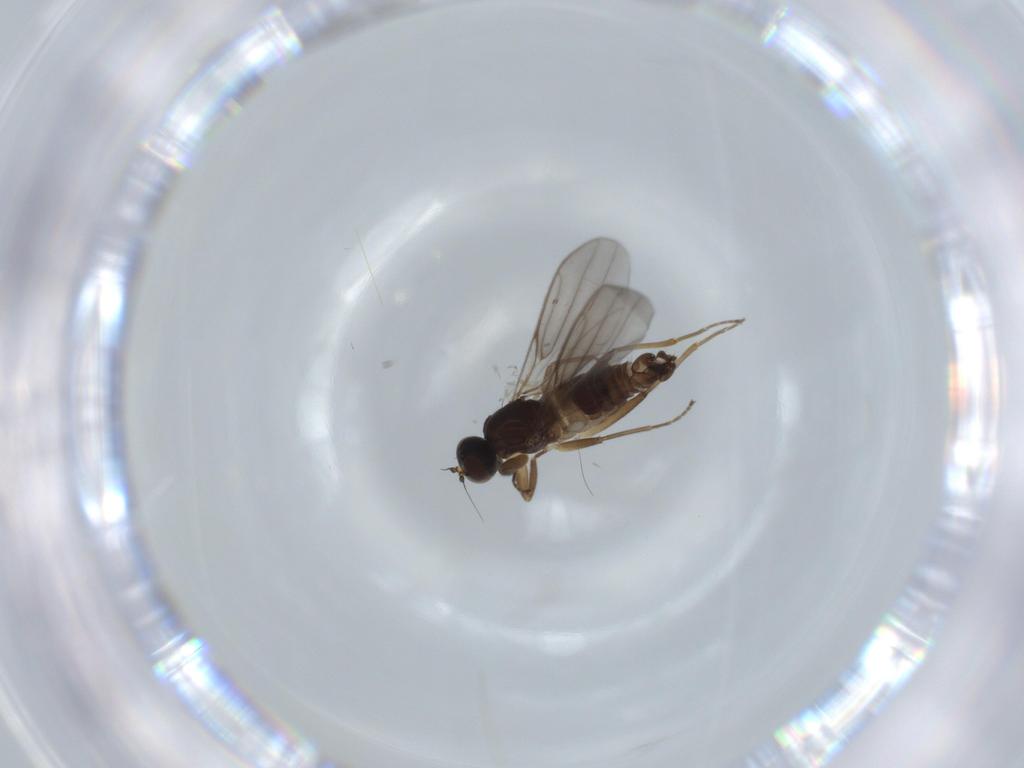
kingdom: Animalia
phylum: Arthropoda
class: Insecta
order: Diptera
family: Hybotidae
